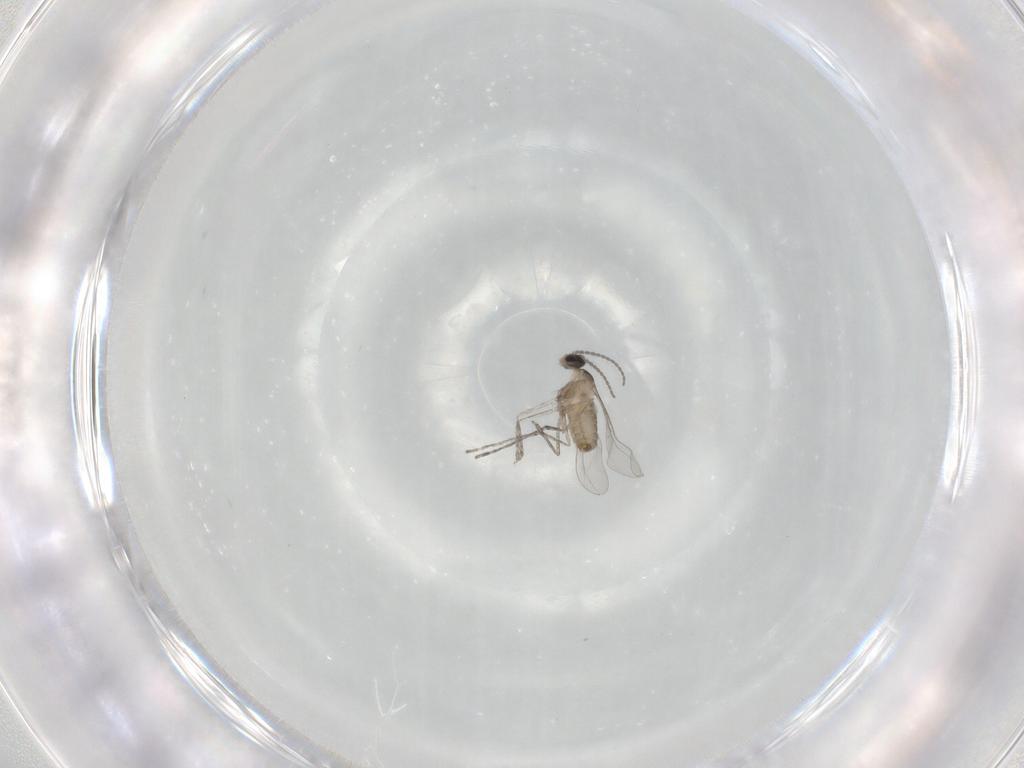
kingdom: Animalia
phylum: Arthropoda
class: Insecta
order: Diptera
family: Cecidomyiidae
